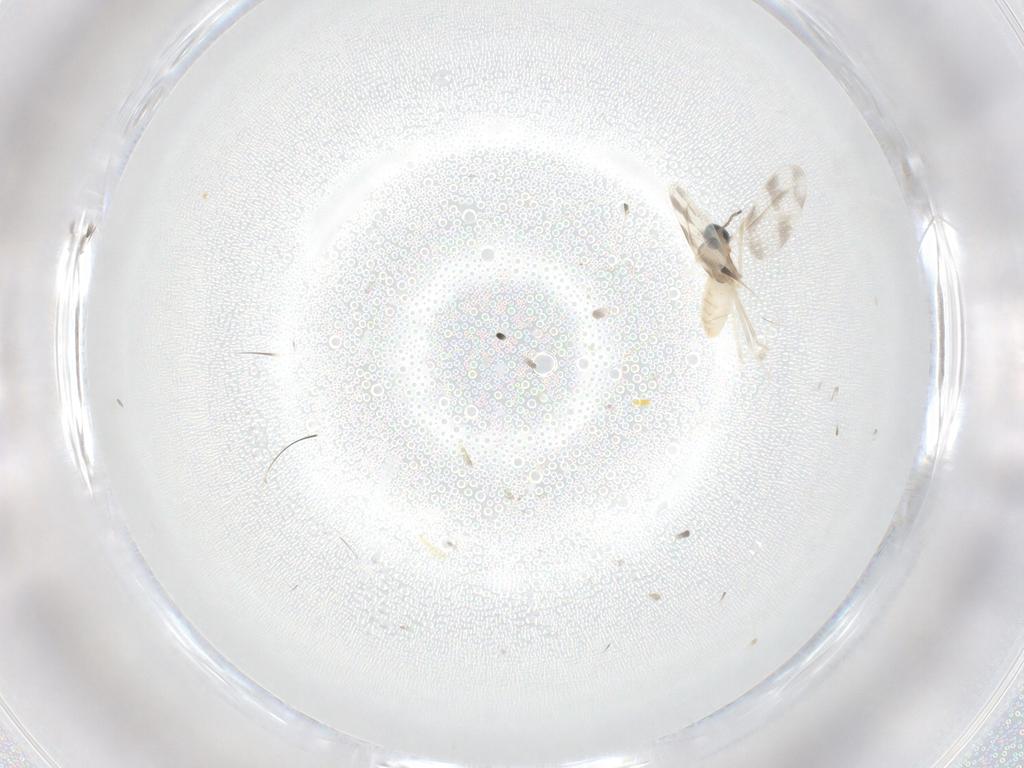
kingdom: Animalia
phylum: Arthropoda
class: Insecta
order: Diptera
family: Cecidomyiidae
